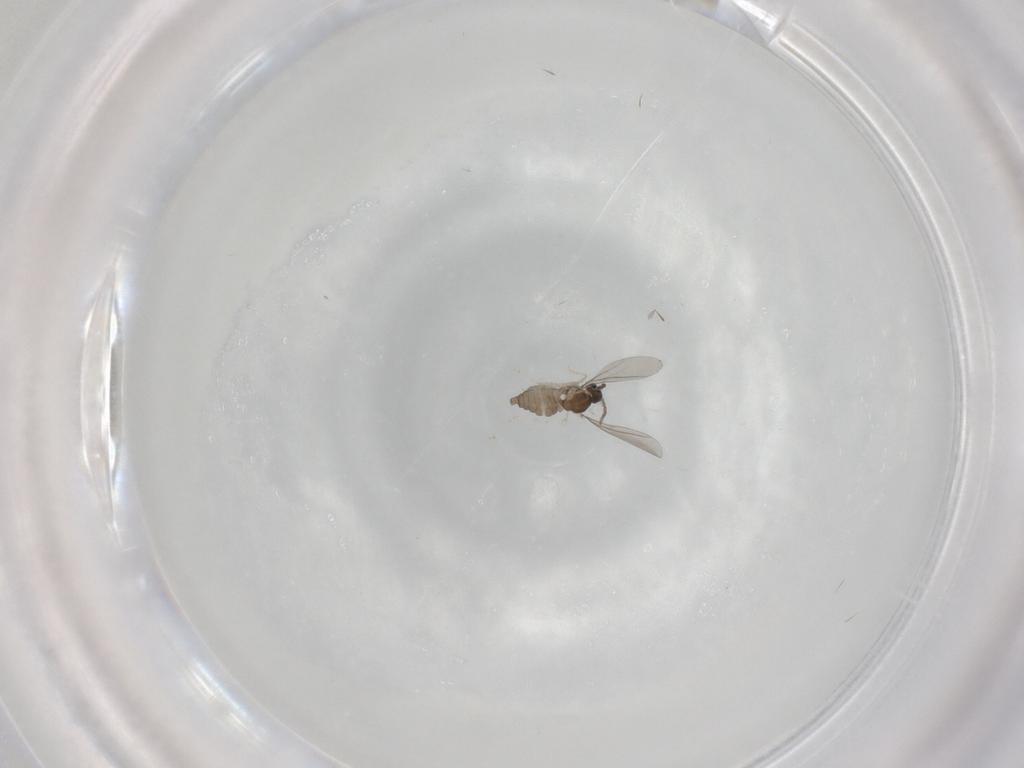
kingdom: Animalia
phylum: Arthropoda
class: Insecta
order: Diptera
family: Cecidomyiidae
